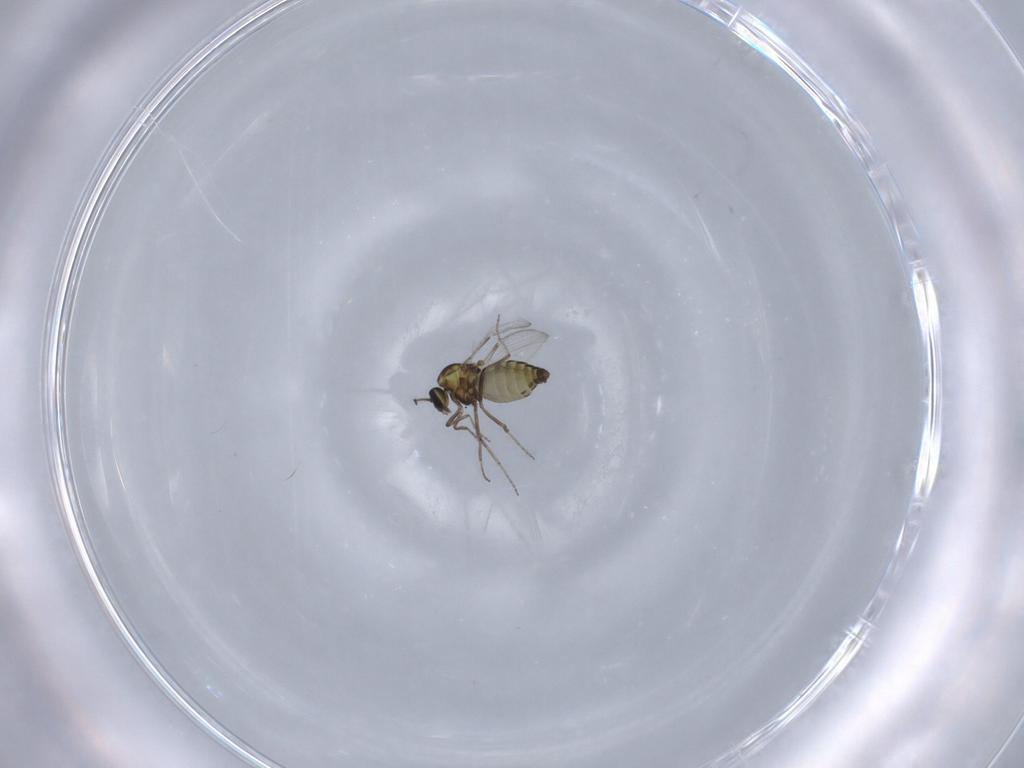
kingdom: Animalia
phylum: Arthropoda
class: Insecta
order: Diptera
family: Ceratopogonidae
